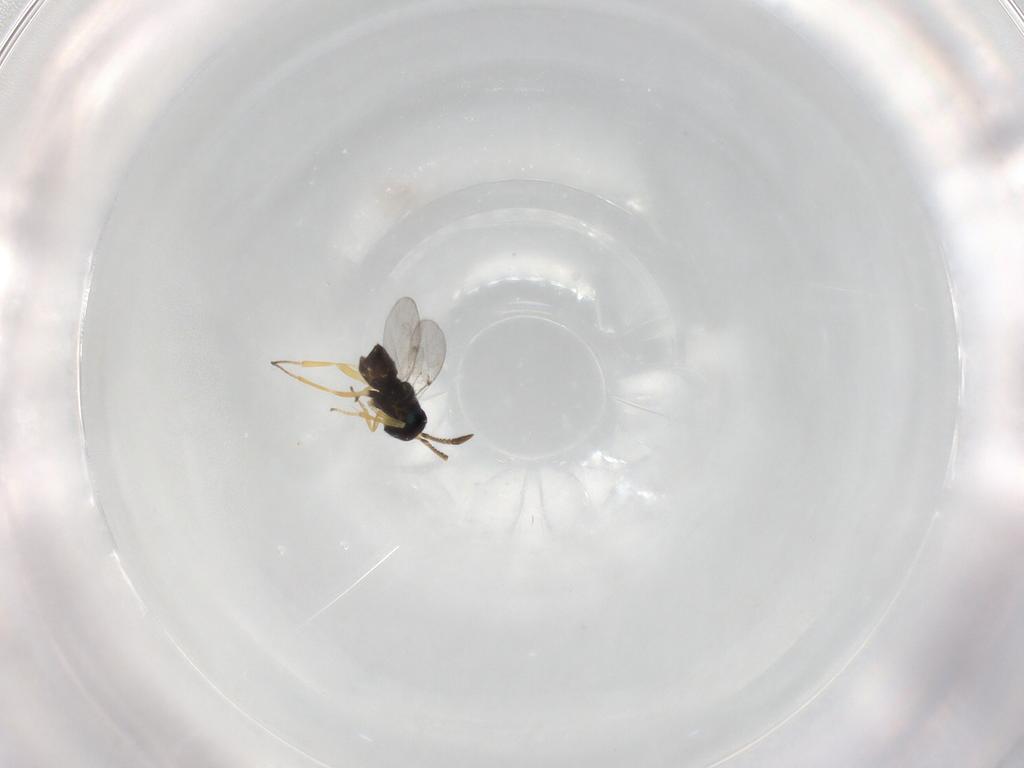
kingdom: Animalia
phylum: Arthropoda
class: Insecta
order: Hymenoptera
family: Encyrtidae
